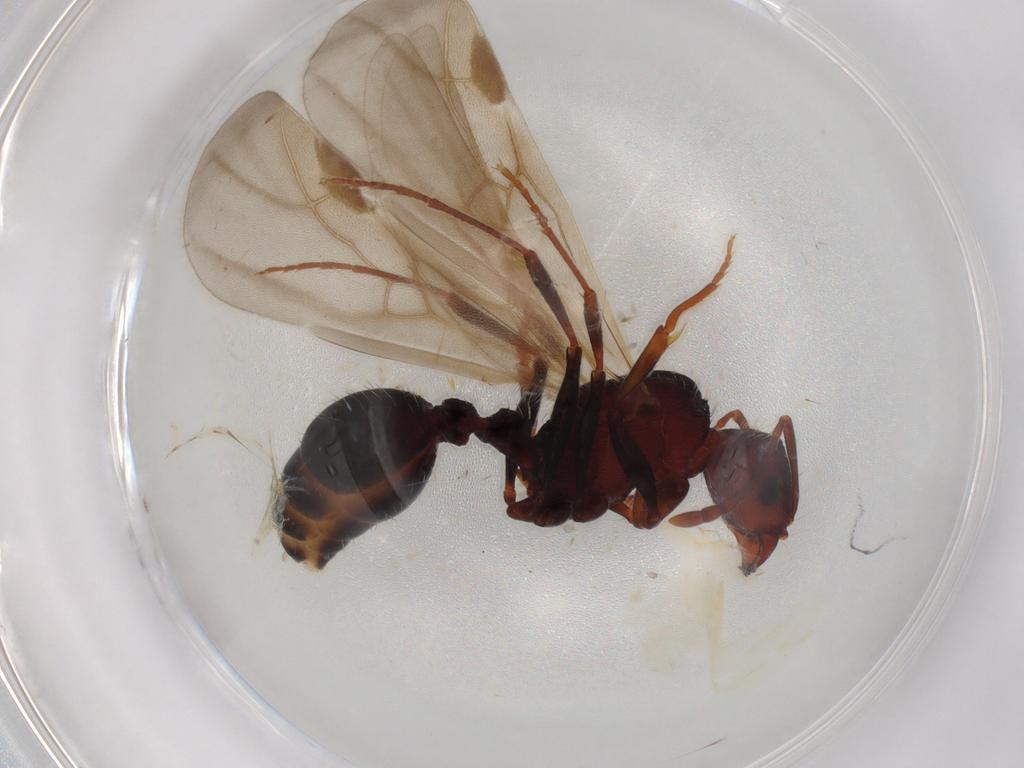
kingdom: Animalia
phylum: Arthropoda
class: Insecta
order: Hymenoptera
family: Formicidae
